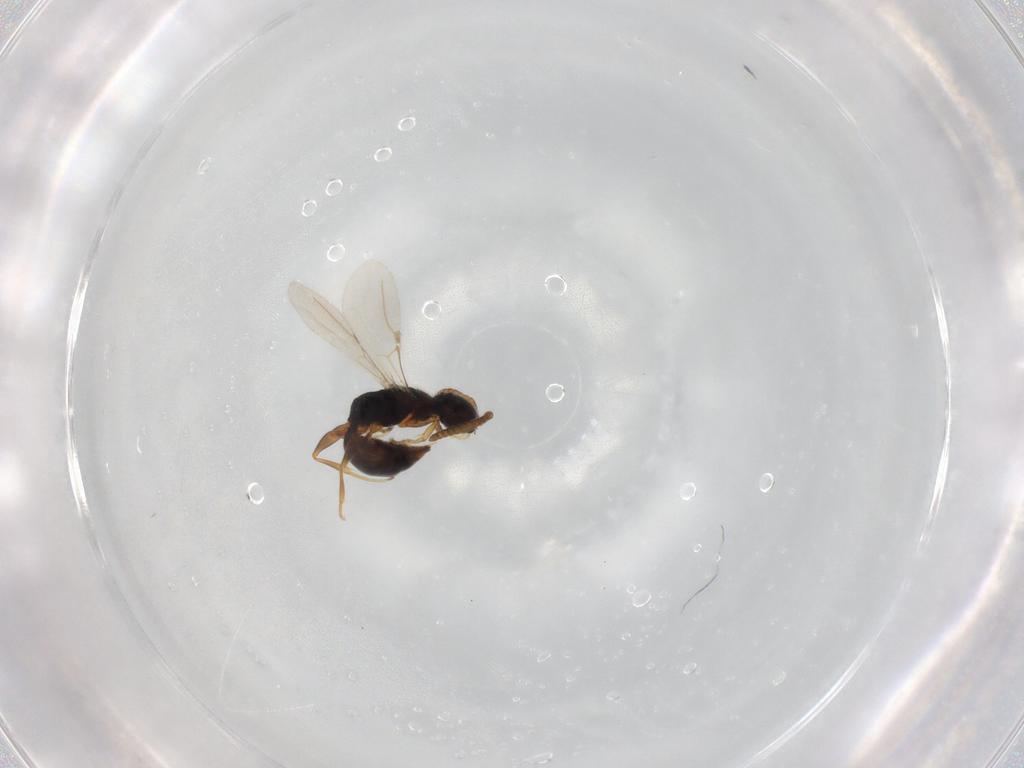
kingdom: Animalia
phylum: Arthropoda
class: Insecta
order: Hymenoptera
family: Bethylidae
